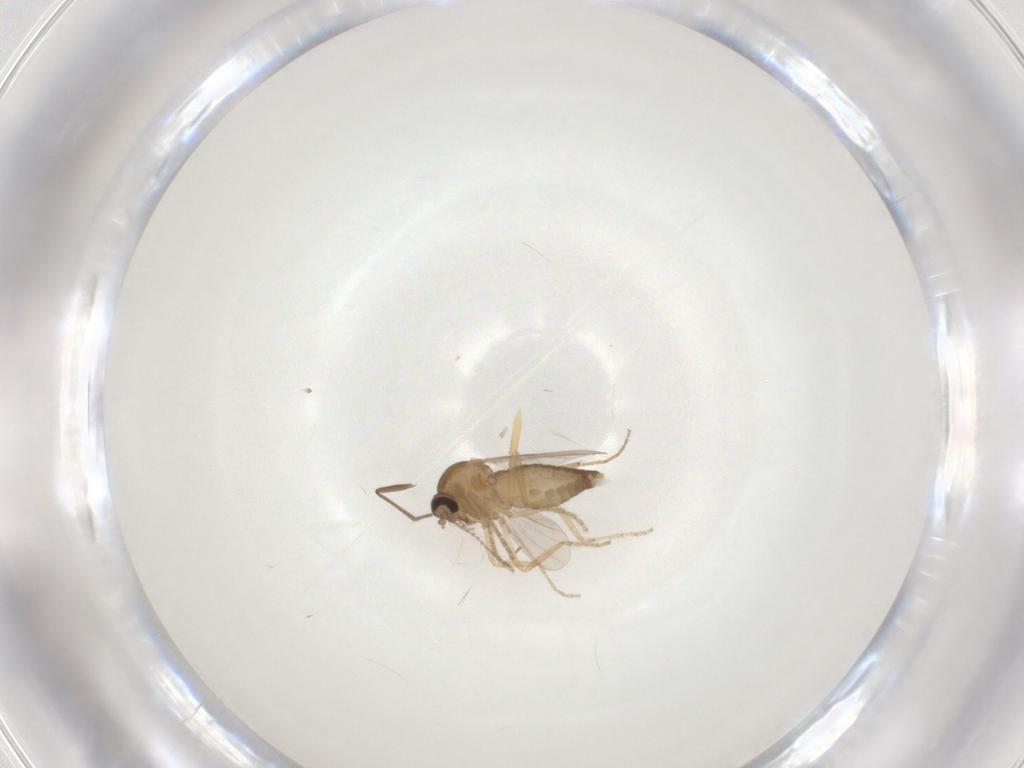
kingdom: Animalia
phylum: Arthropoda
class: Insecta
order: Diptera
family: Sciaridae
